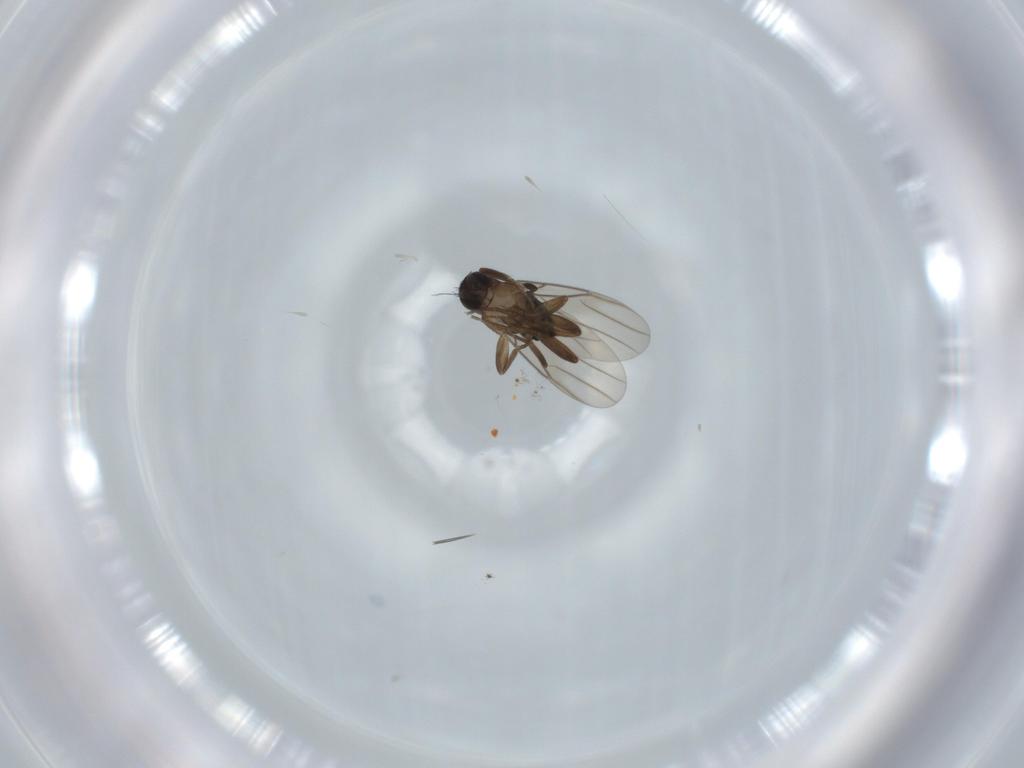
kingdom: Animalia
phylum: Arthropoda
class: Insecta
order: Diptera
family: Phoridae
